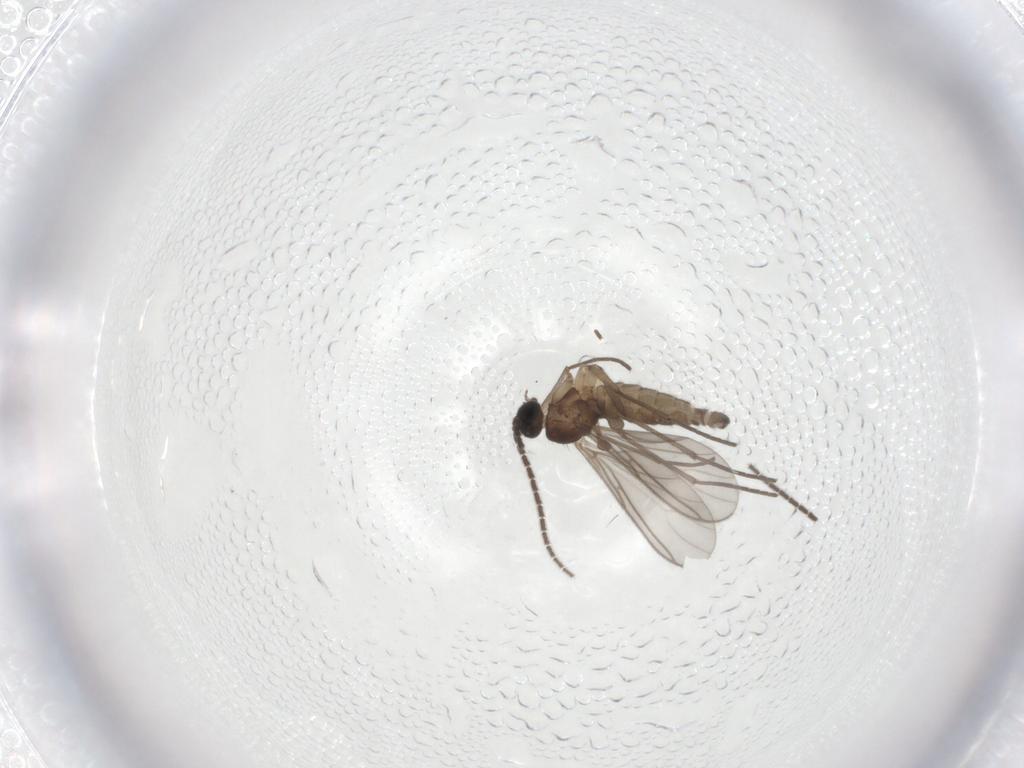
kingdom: Animalia
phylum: Arthropoda
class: Insecta
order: Diptera
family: Sciaridae
